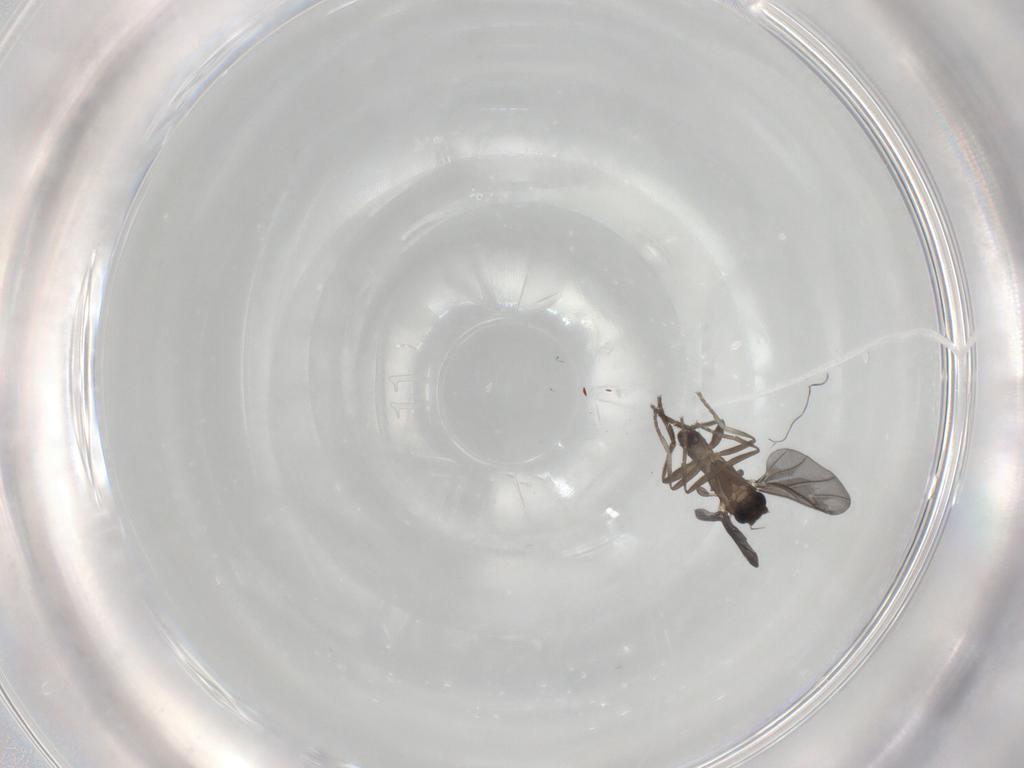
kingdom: Animalia
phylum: Arthropoda
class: Insecta
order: Diptera
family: Phoridae
